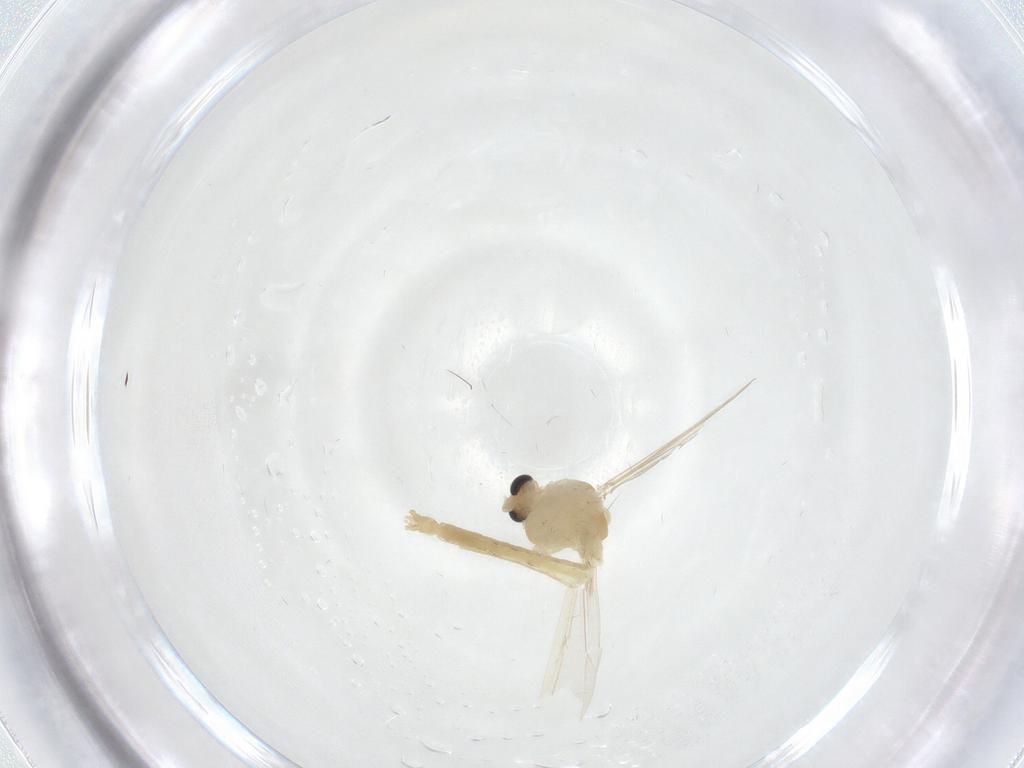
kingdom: Animalia
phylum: Arthropoda
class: Insecta
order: Diptera
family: Chironomidae
